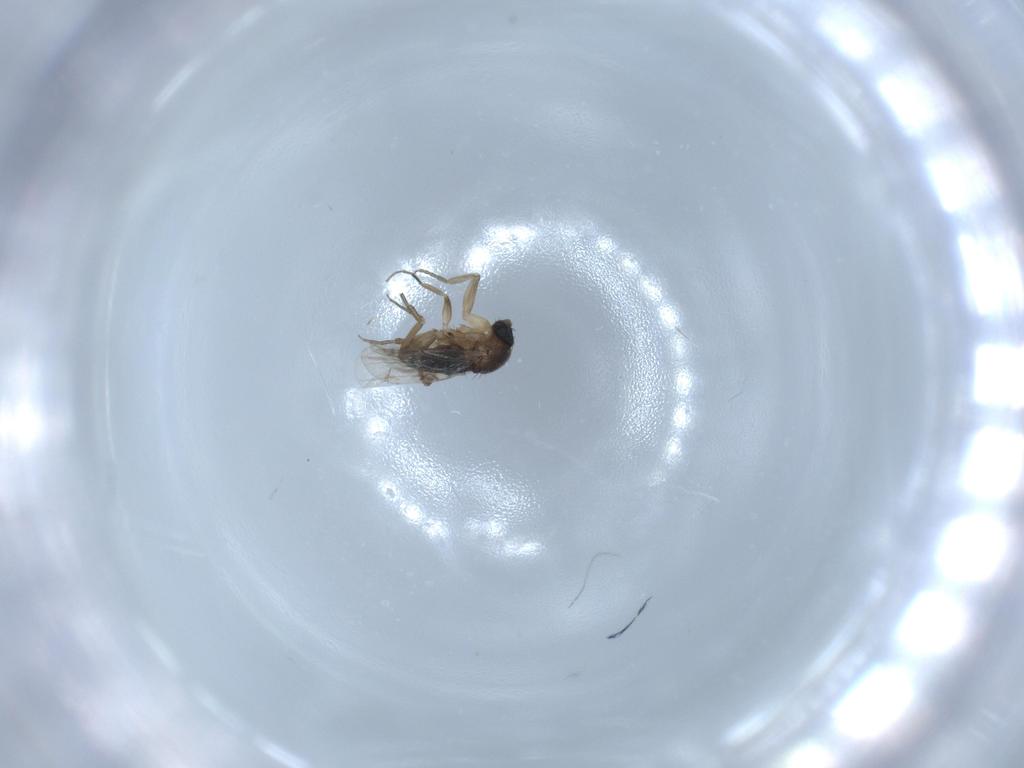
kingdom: Animalia
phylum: Arthropoda
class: Insecta
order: Diptera
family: Phoridae
